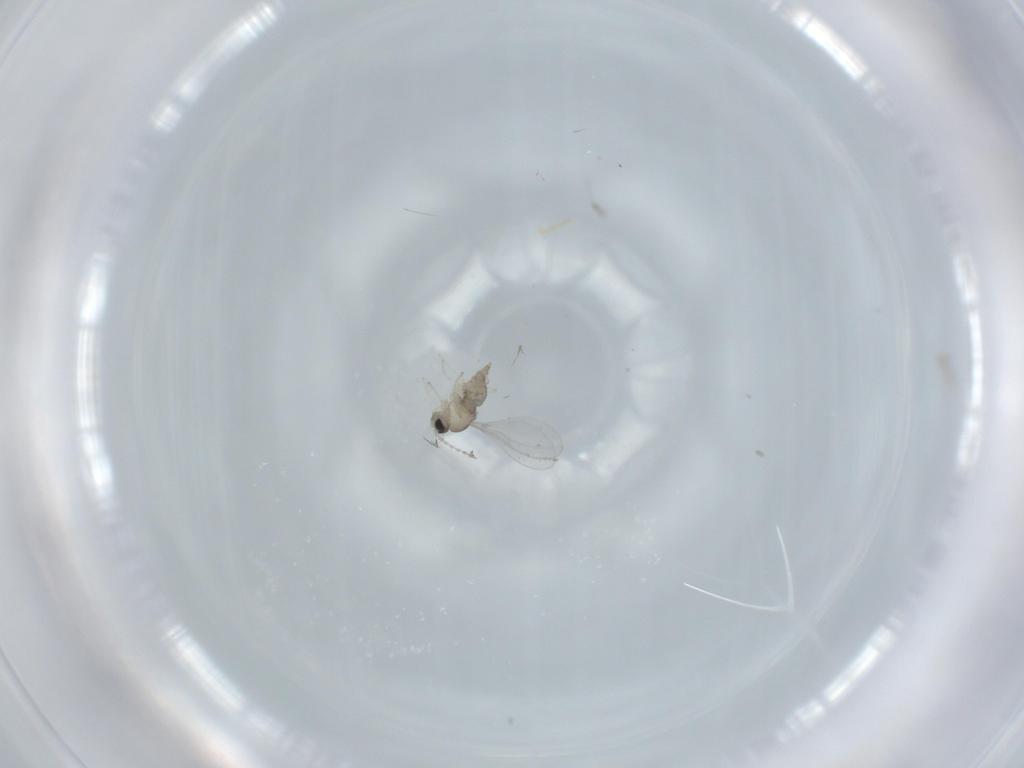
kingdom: Animalia
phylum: Arthropoda
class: Insecta
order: Diptera
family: Cecidomyiidae
